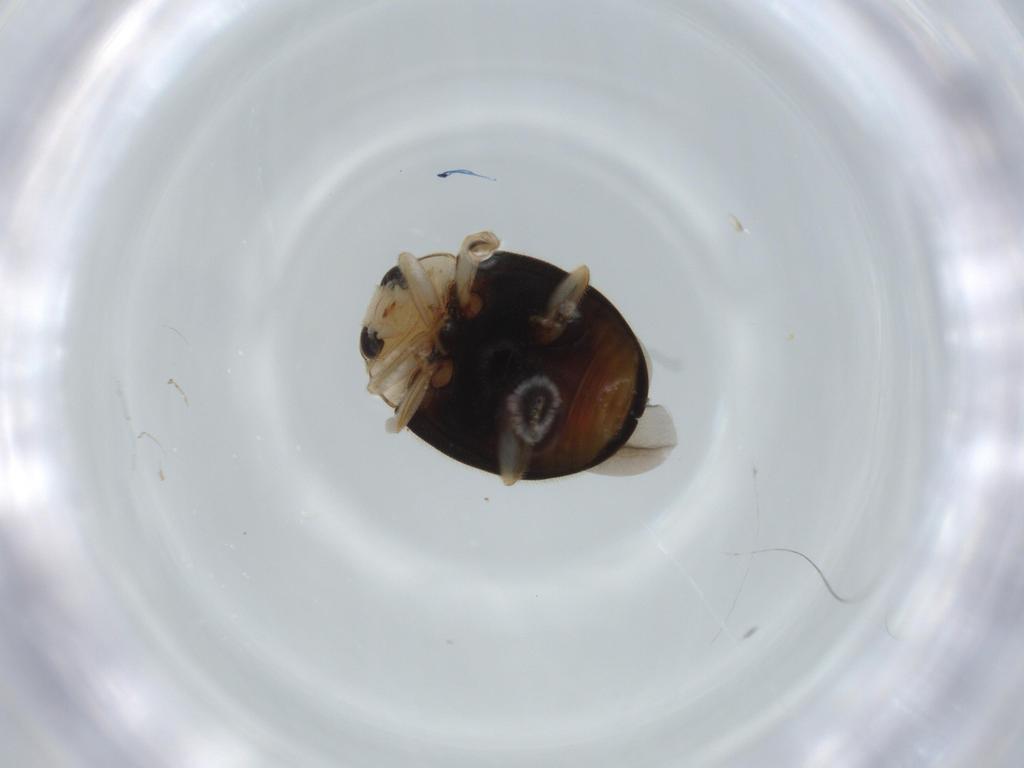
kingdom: Animalia
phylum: Arthropoda
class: Insecta
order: Coleoptera
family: Coccinellidae
